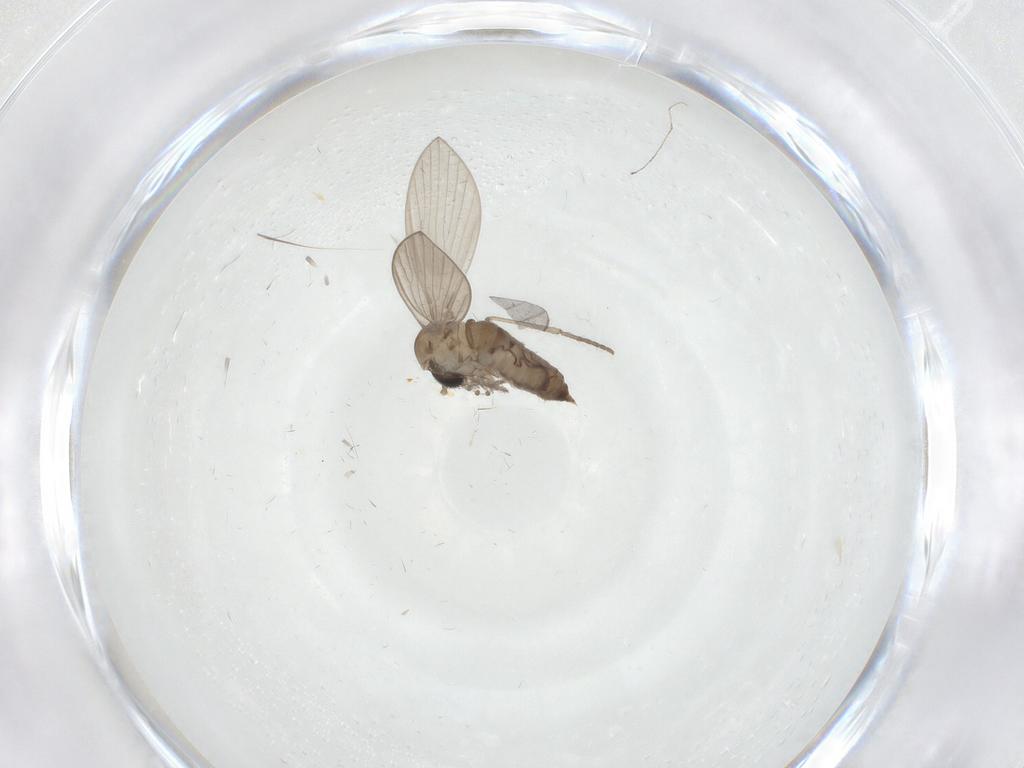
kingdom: Animalia
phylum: Arthropoda
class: Insecta
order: Diptera
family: Psychodidae
